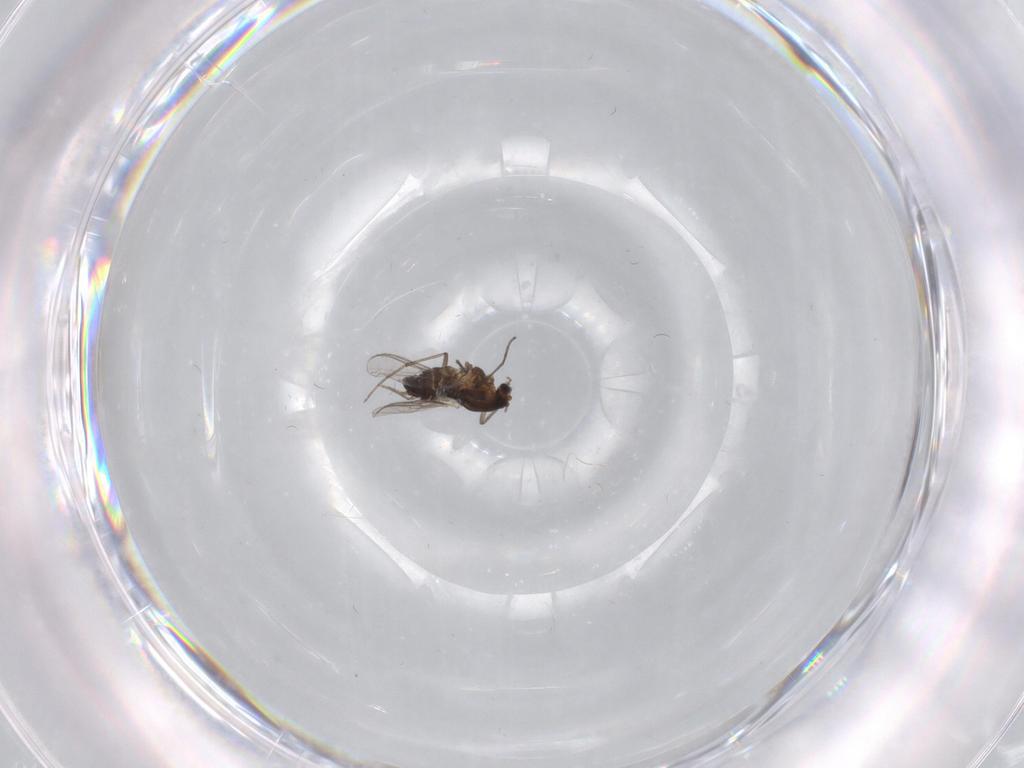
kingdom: Animalia
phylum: Arthropoda
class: Insecta
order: Diptera
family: Chironomidae
